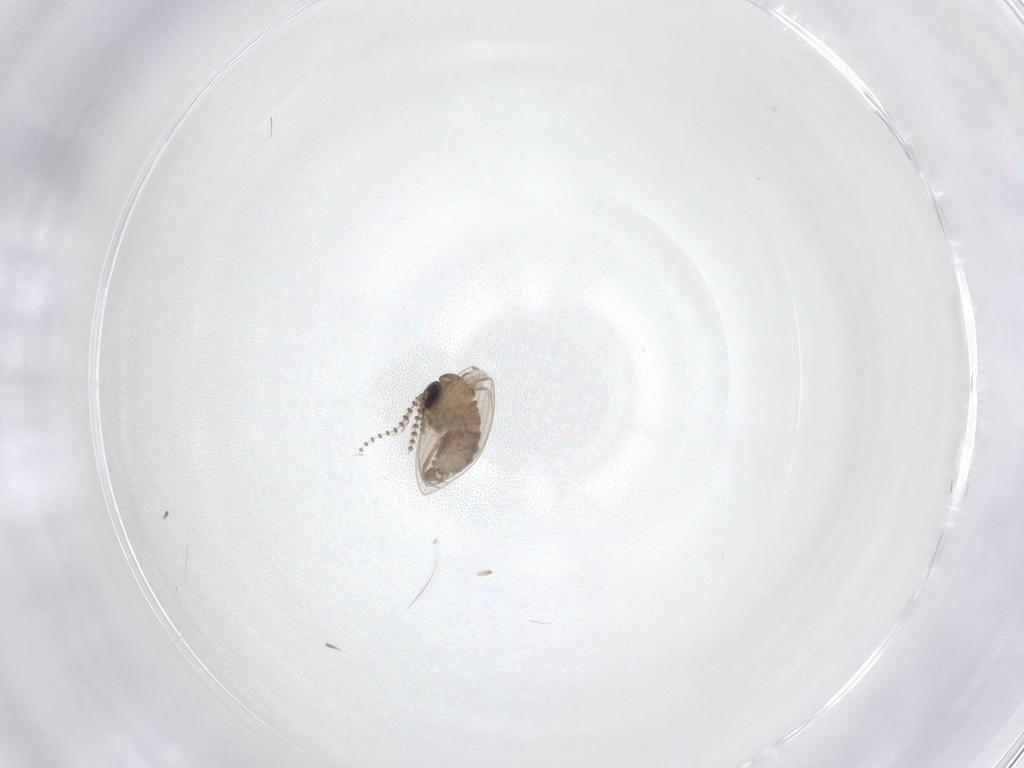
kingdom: Animalia
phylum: Arthropoda
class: Insecta
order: Diptera
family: Psychodidae
